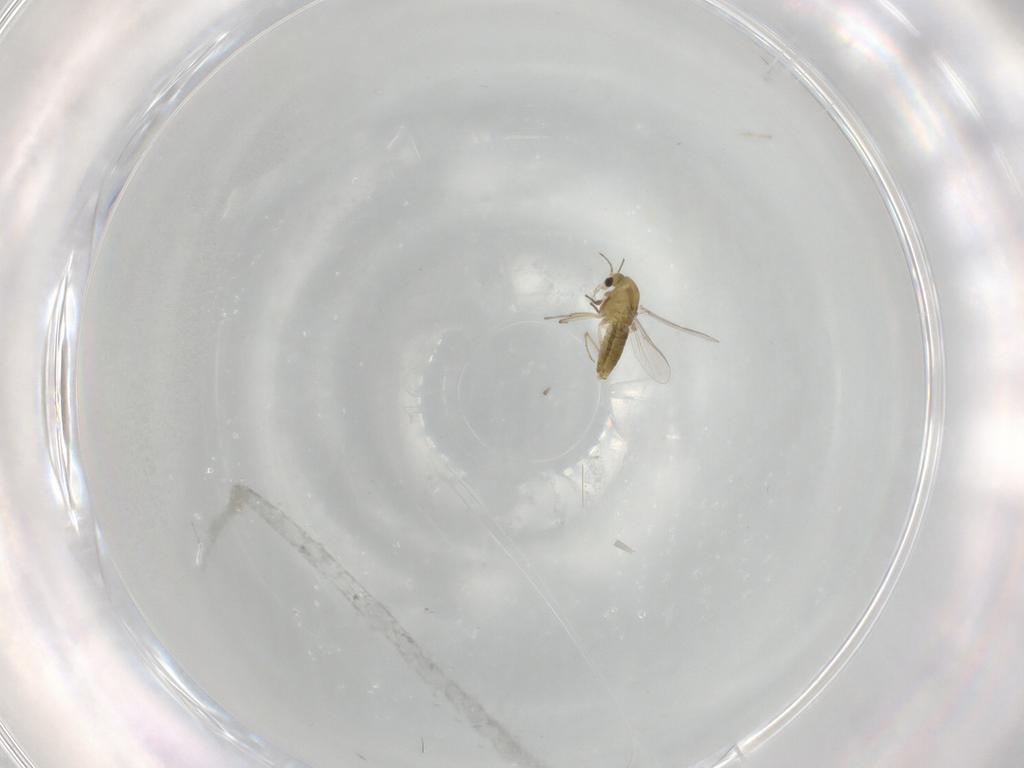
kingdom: Animalia
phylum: Arthropoda
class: Insecta
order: Diptera
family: Chironomidae
